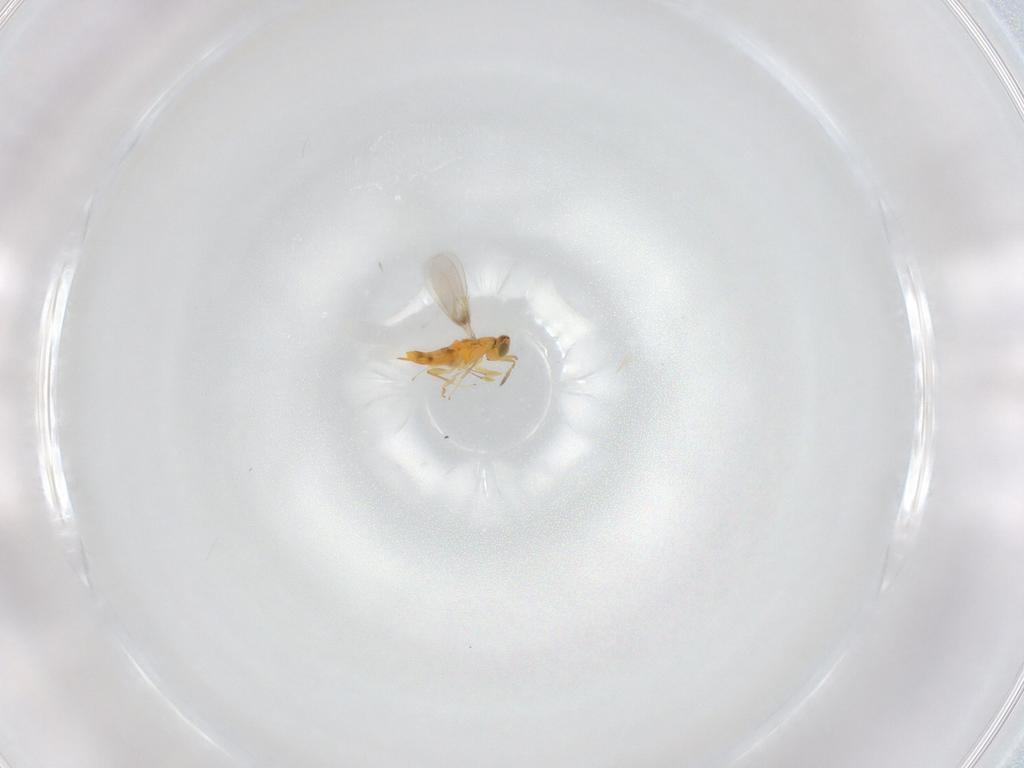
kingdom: Animalia
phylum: Arthropoda
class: Insecta
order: Hymenoptera
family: Aphelinidae
